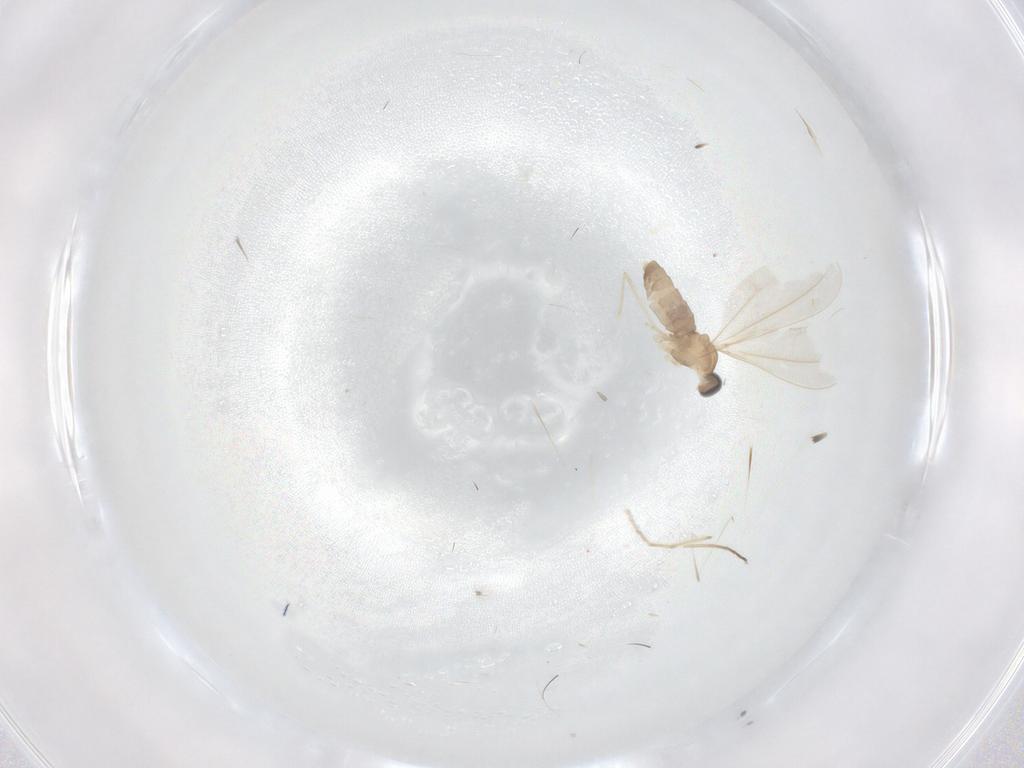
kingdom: Animalia
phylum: Arthropoda
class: Insecta
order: Diptera
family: Cecidomyiidae
